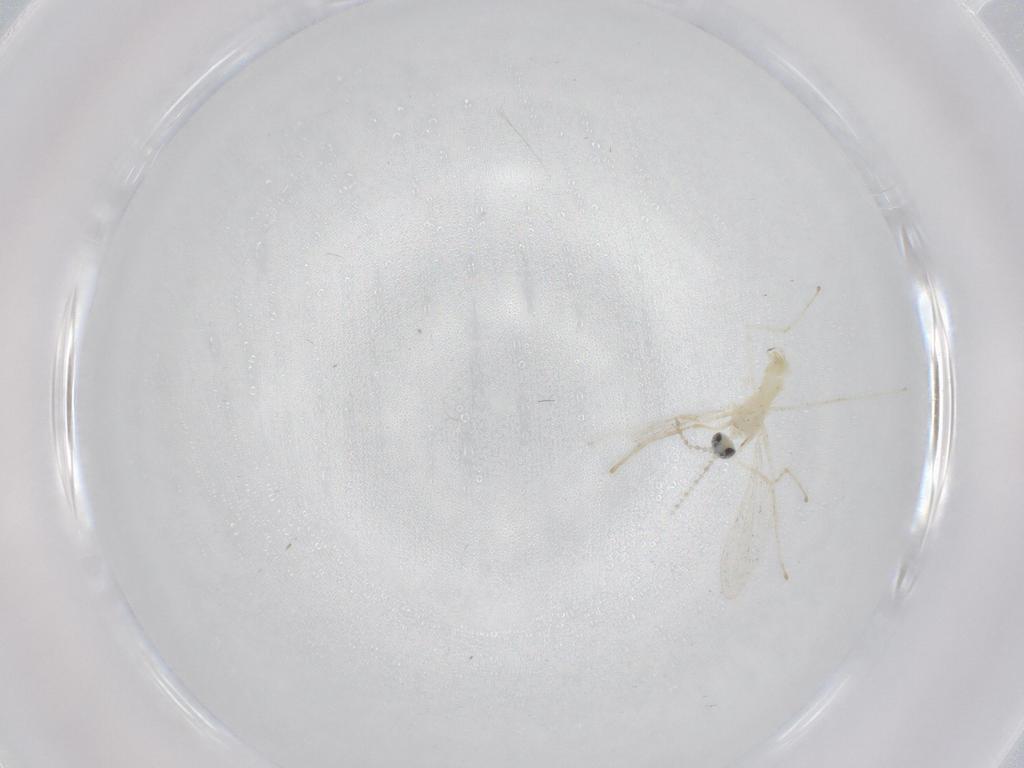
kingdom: Animalia
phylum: Arthropoda
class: Insecta
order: Diptera
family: Cecidomyiidae
